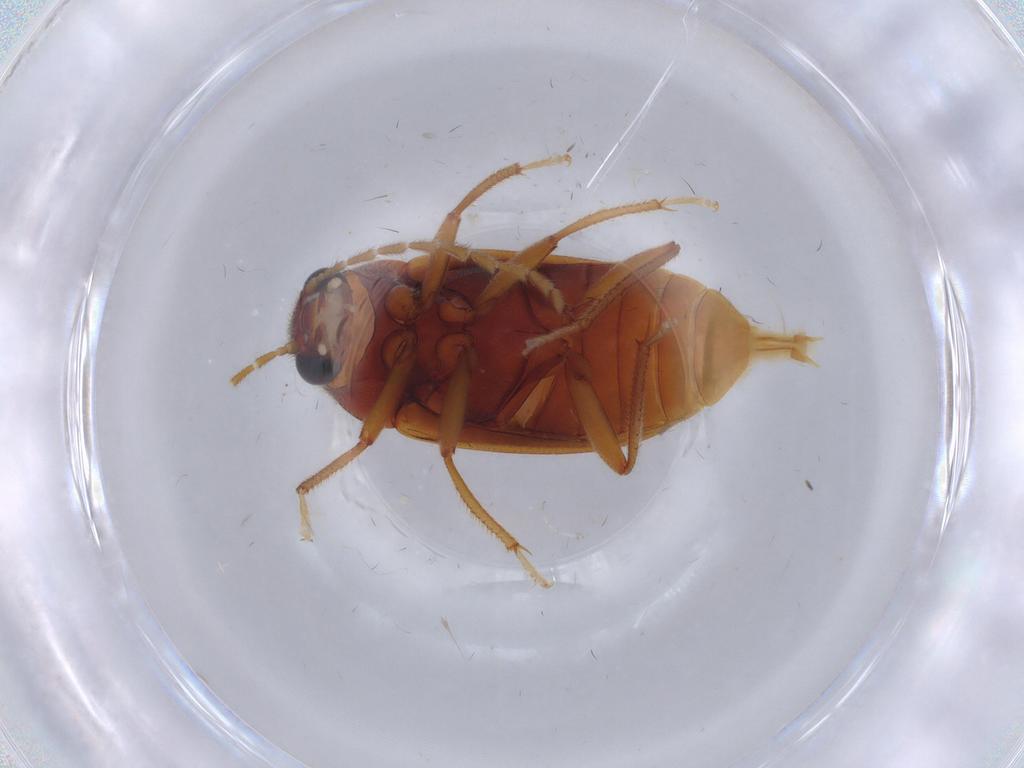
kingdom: Animalia
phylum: Arthropoda
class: Insecta
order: Coleoptera
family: Ptilodactylidae
